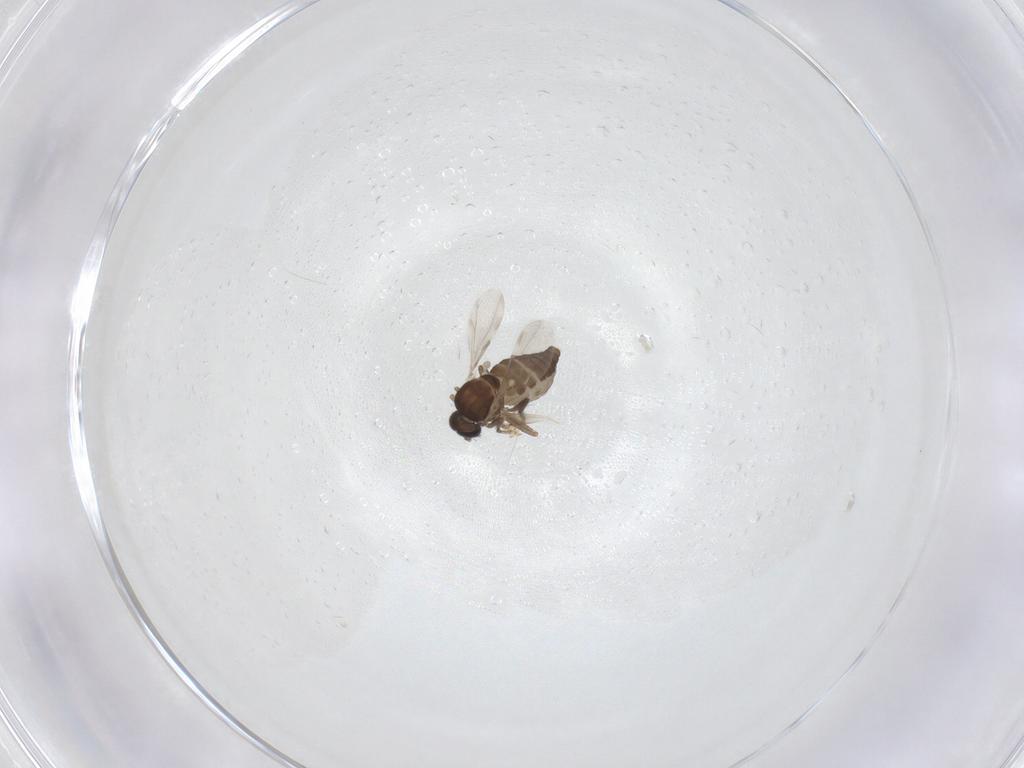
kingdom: Animalia
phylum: Arthropoda
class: Insecta
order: Diptera
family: Ceratopogonidae
